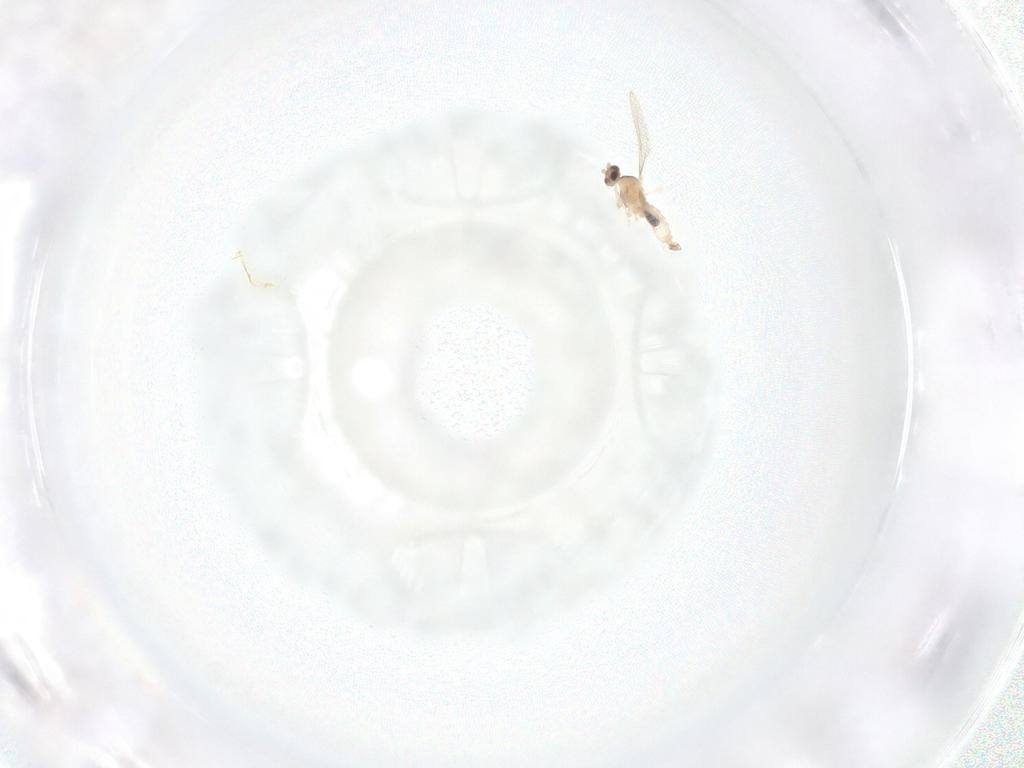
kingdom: Animalia
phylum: Arthropoda
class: Insecta
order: Diptera
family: Cecidomyiidae
